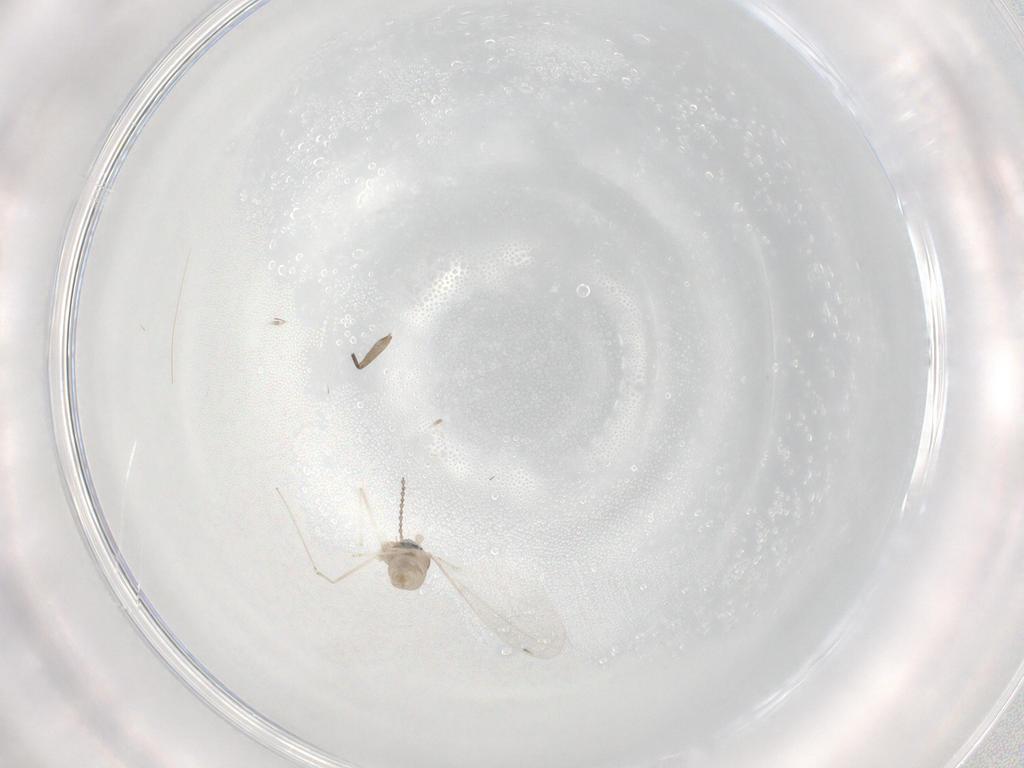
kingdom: Animalia
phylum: Arthropoda
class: Insecta
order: Diptera
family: Cecidomyiidae
